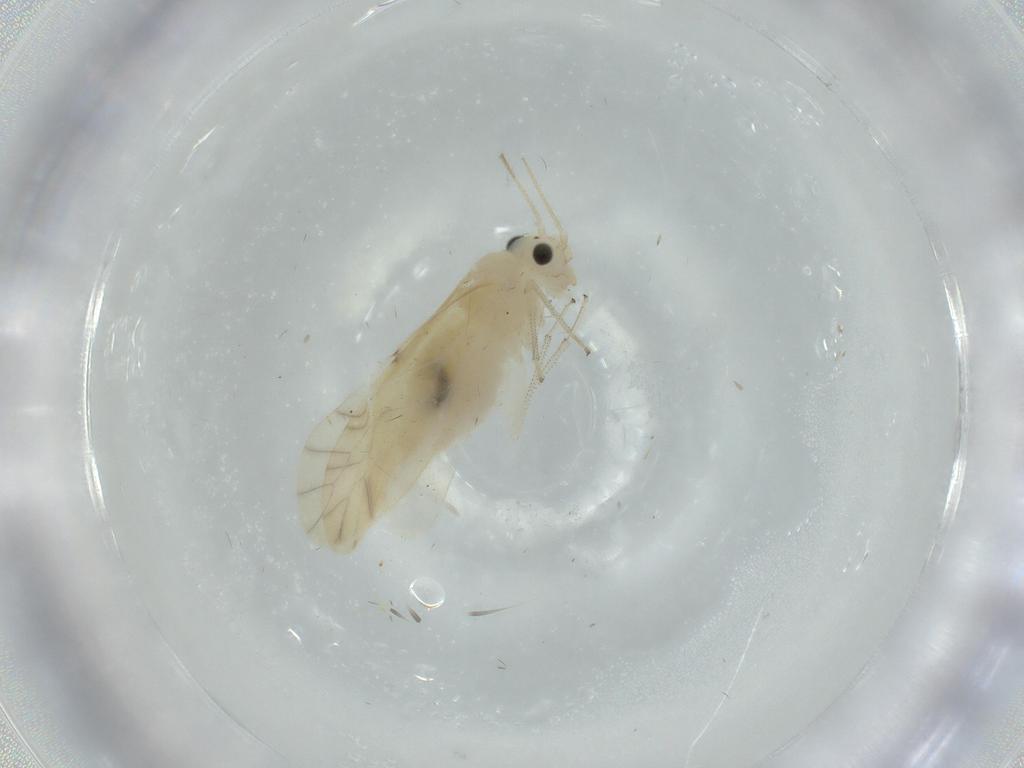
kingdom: Animalia
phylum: Arthropoda
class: Insecta
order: Psocodea
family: Caeciliusidae
